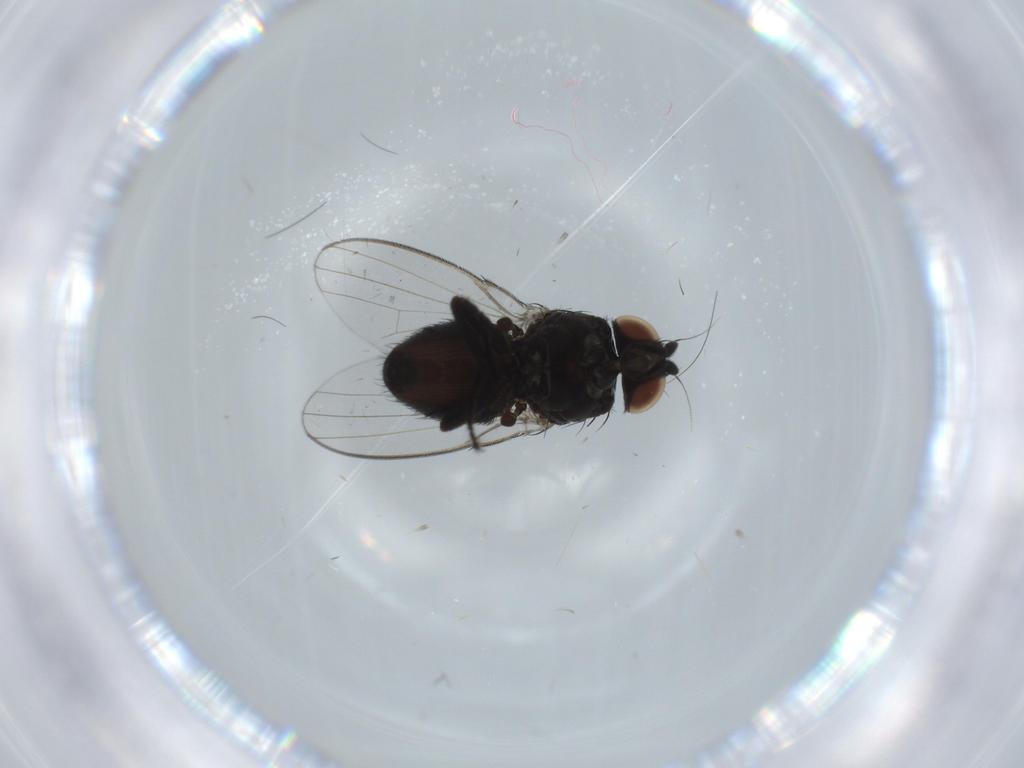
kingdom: Animalia
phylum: Arthropoda
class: Insecta
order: Diptera
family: Milichiidae
